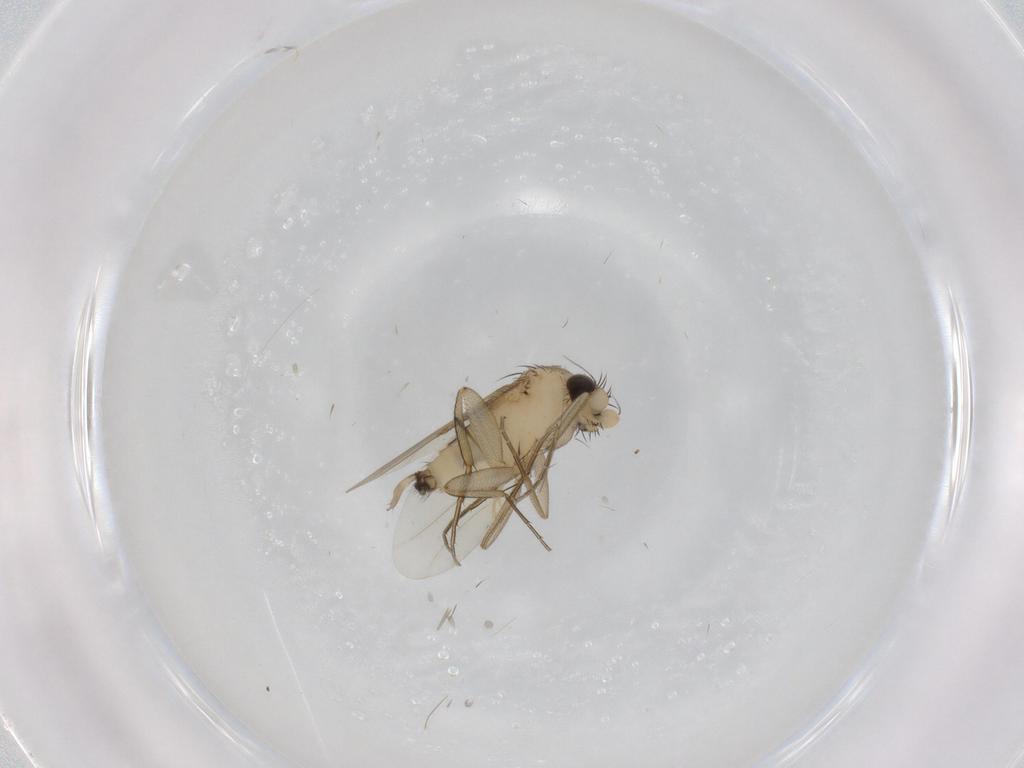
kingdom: Animalia
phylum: Arthropoda
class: Insecta
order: Diptera
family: Phoridae
